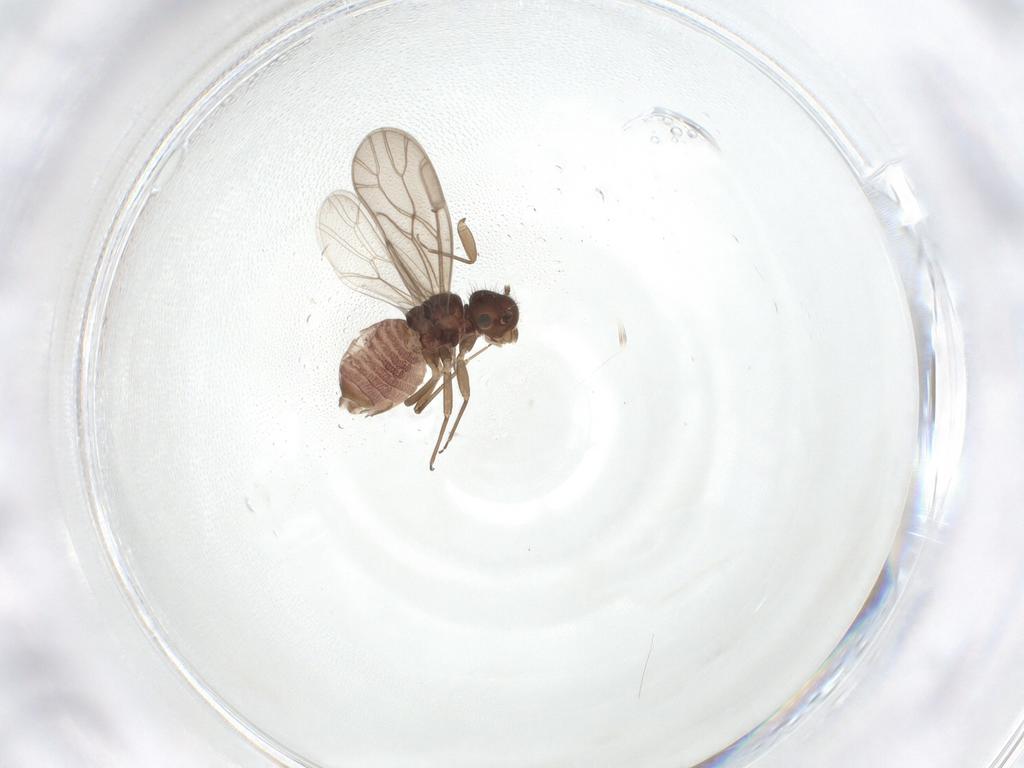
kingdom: Animalia
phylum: Arthropoda
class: Insecta
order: Psocodea
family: Ectopsocidae
